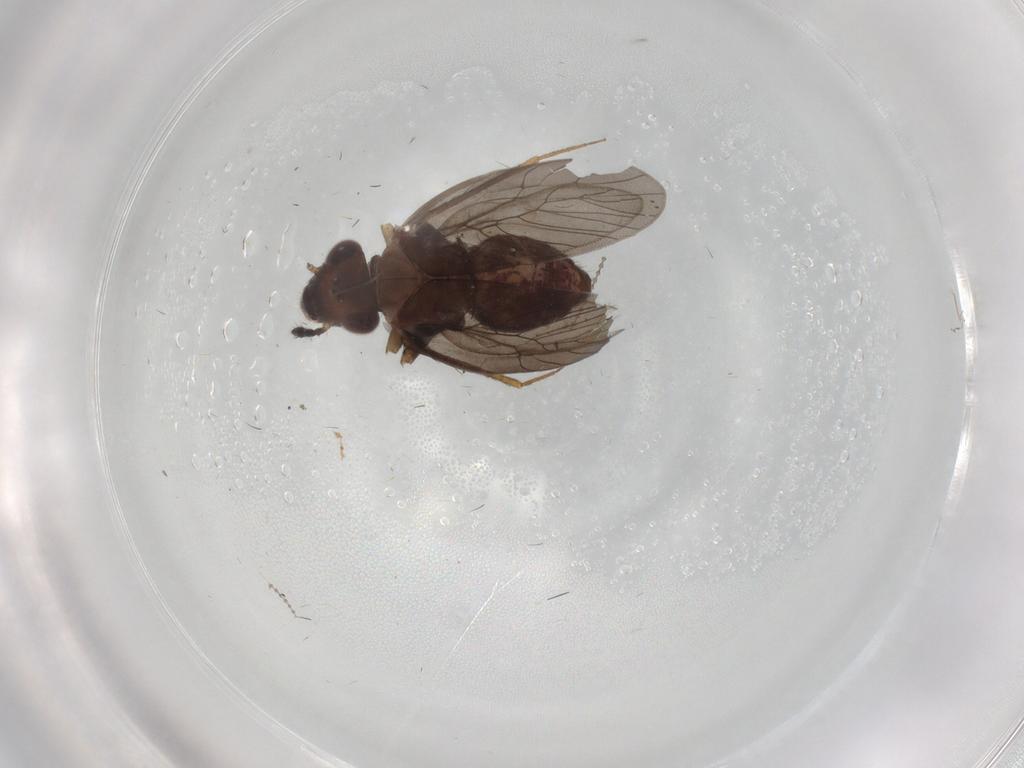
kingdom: Animalia
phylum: Arthropoda
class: Insecta
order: Psocodea
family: Lepidopsocidae
